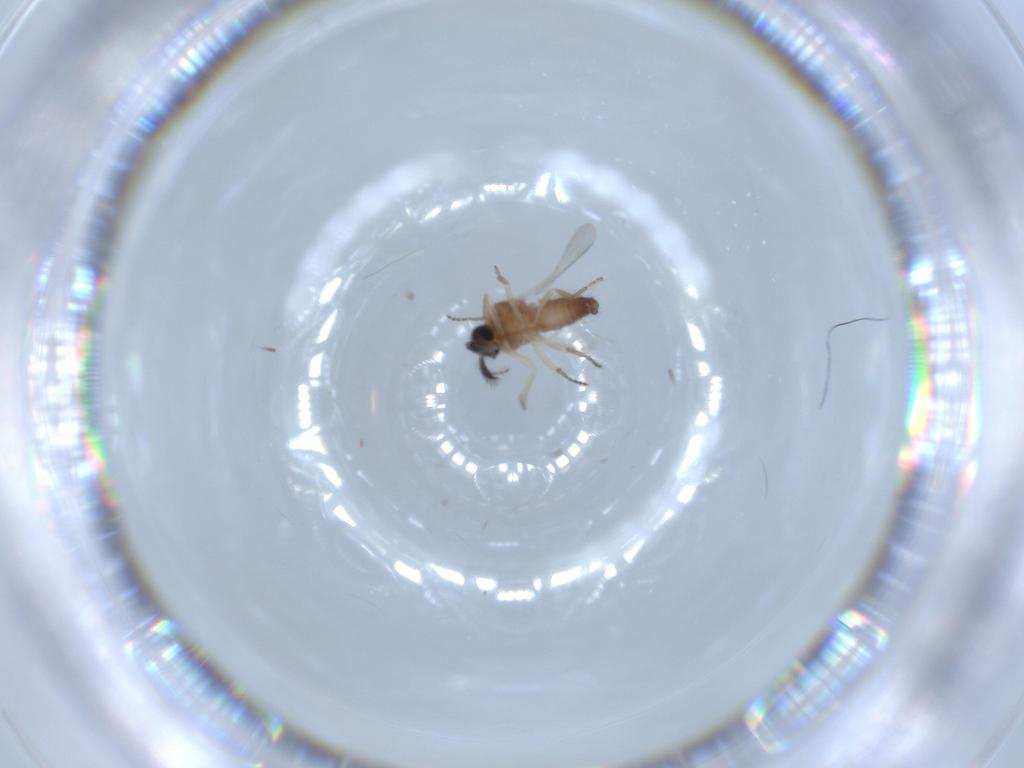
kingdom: Animalia
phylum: Arthropoda
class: Insecta
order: Diptera
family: Ceratopogonidae
